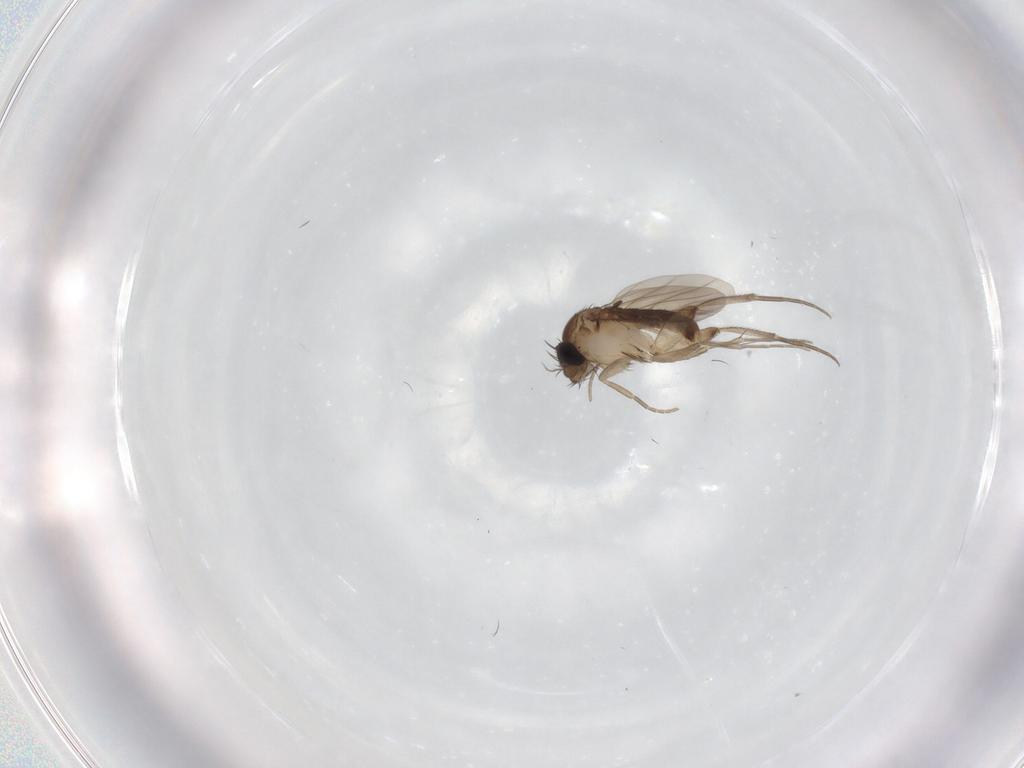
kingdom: Animalia
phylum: Arthropoda
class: Insecta
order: Diptera
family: Phoridae
